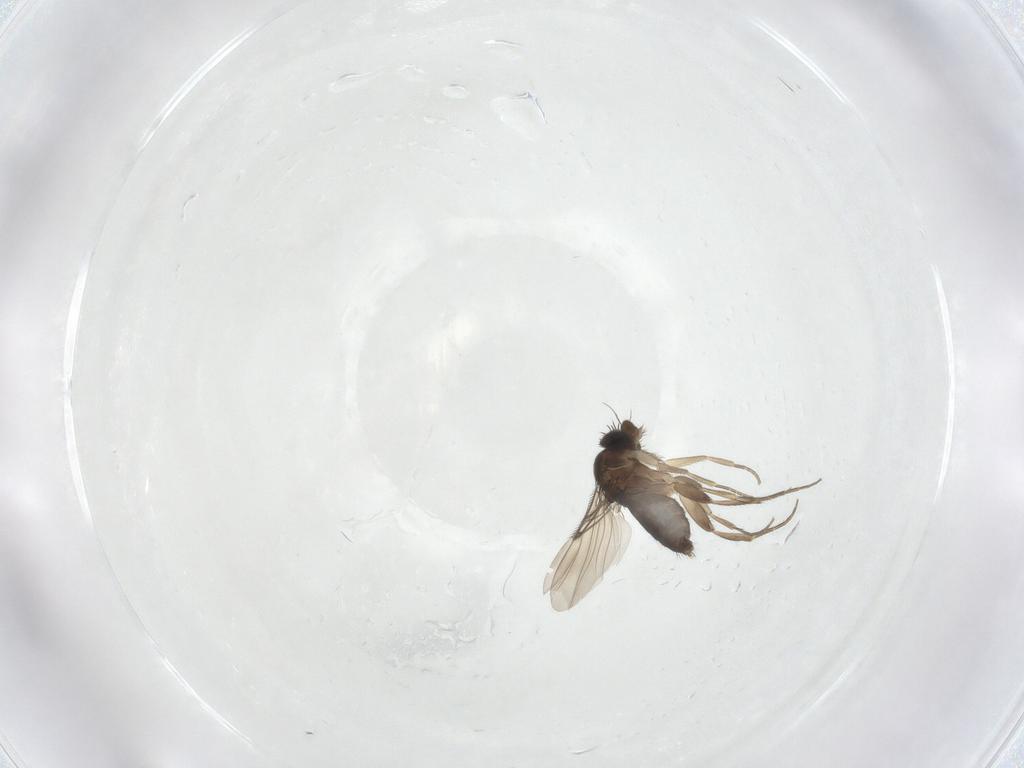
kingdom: Animalia
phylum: Arthropoda
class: Insecta
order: Diptera
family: Phoridae
